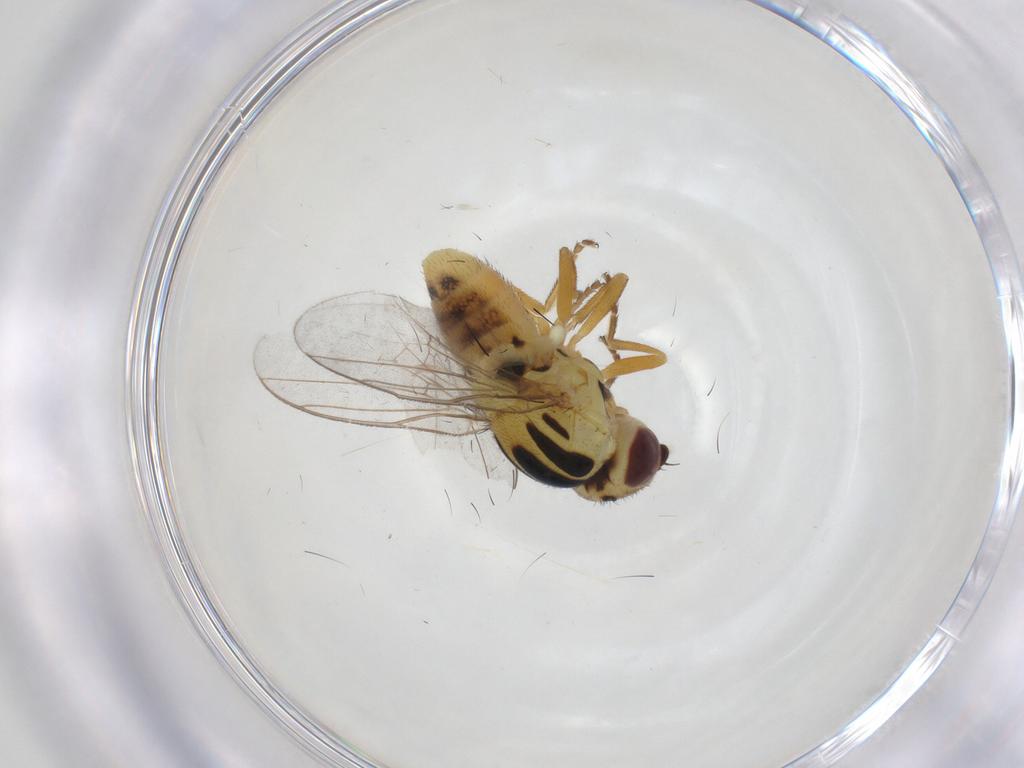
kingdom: Animalia
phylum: Arthropoda
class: Insecta
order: Diptera
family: Chloropidae
